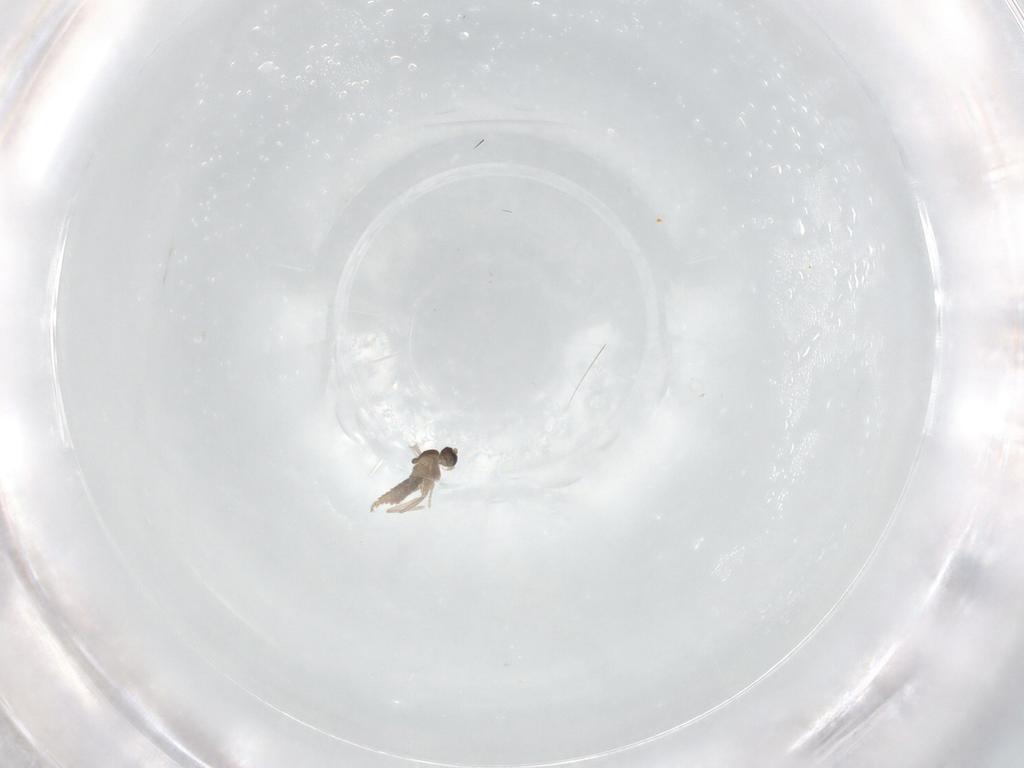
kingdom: Animalia
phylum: Arthropoda
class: Insecta
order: Diptera
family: Cecidomyiidae
